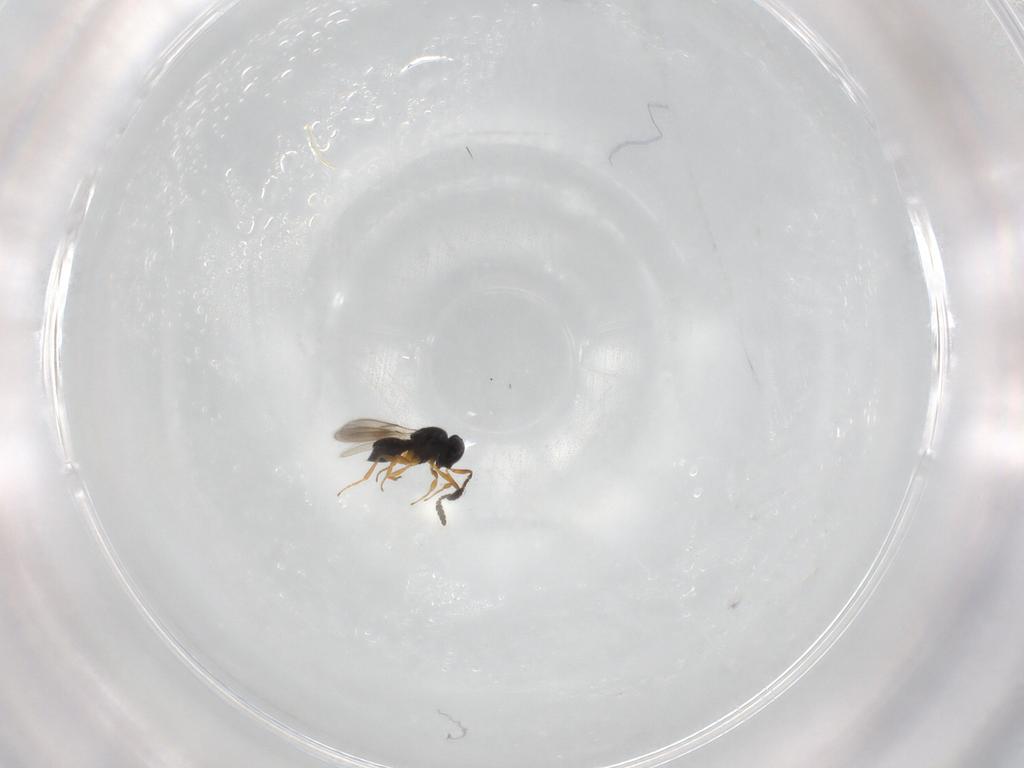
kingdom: Animalia
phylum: Arthropoda
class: Insecta
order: Hymenoptera
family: Scelionidae
